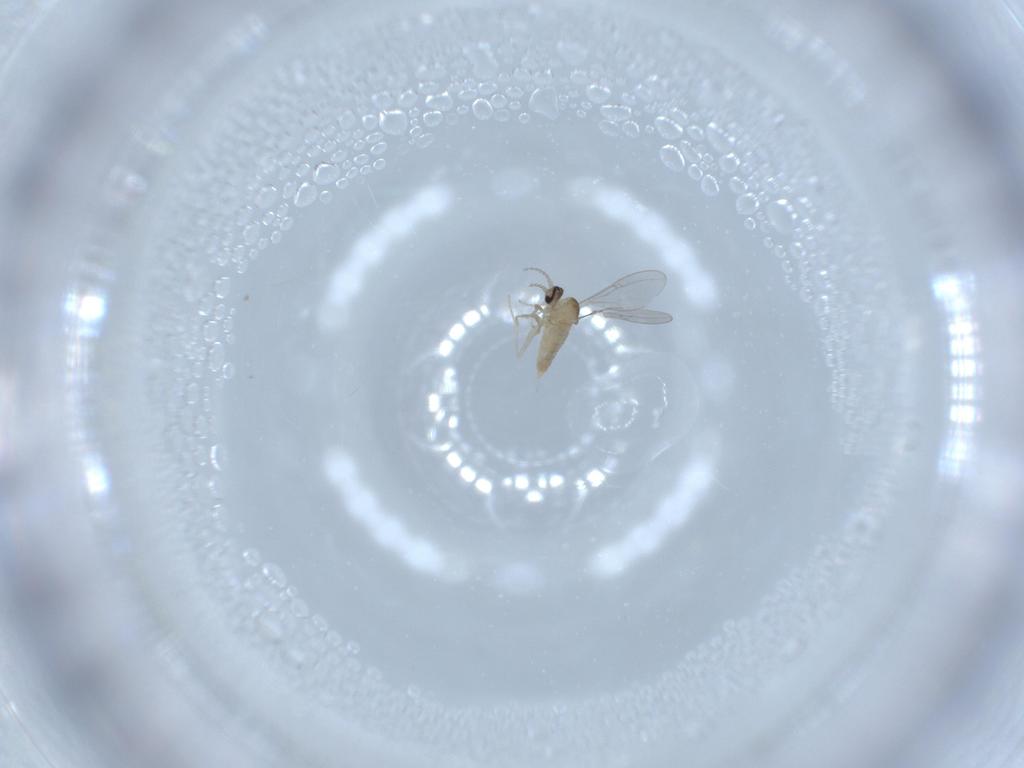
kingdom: Animalia
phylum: Arthropoda
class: Insecta
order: Diptera
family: Cecidomyiidae
